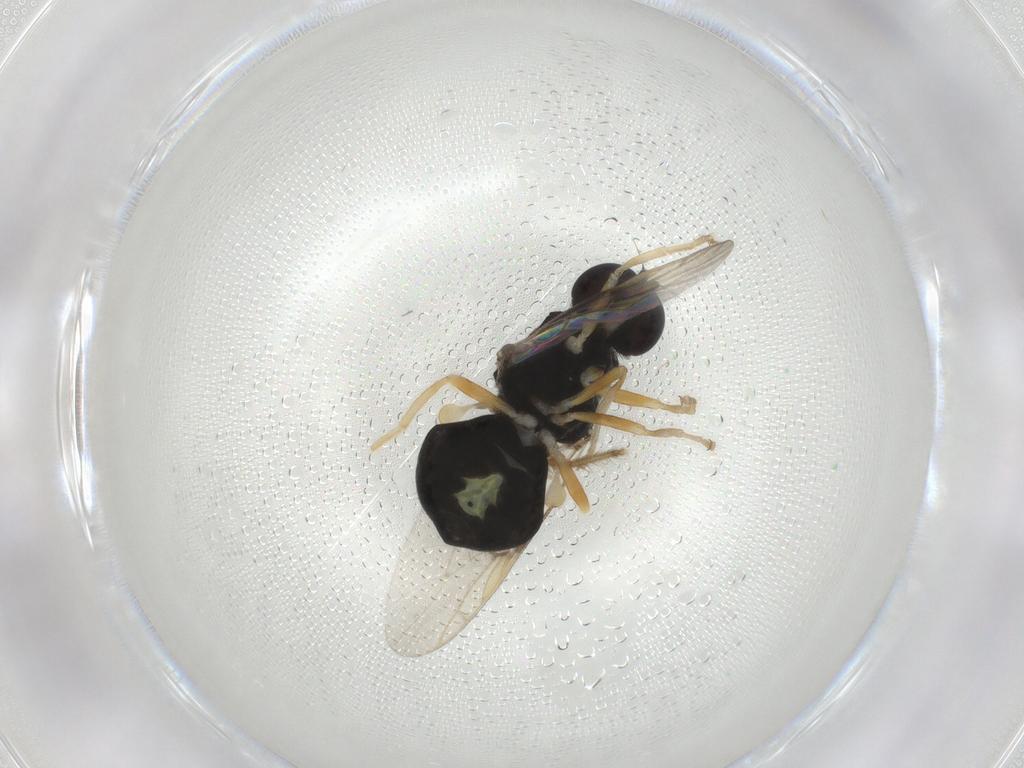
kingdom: Animalia
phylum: Arthropoda
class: Insecta
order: Diptera
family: Stratiomyidae
